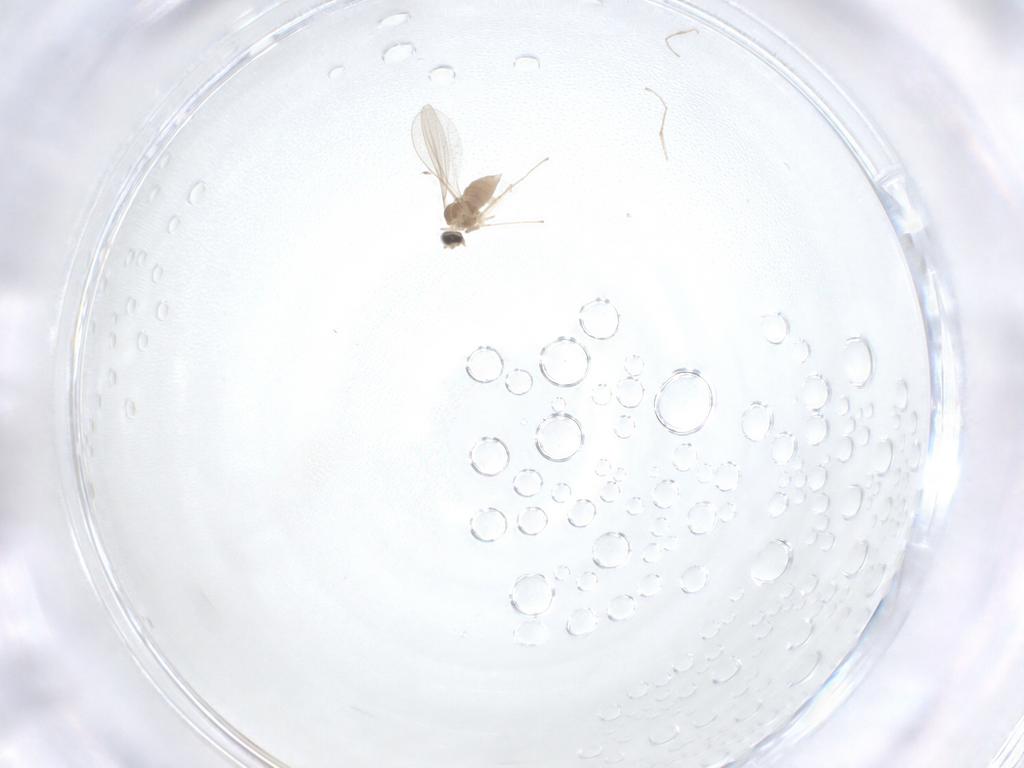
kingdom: Animalia
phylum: Arthropoda
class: Insecta
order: Diptera
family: Cecidomyiidae
